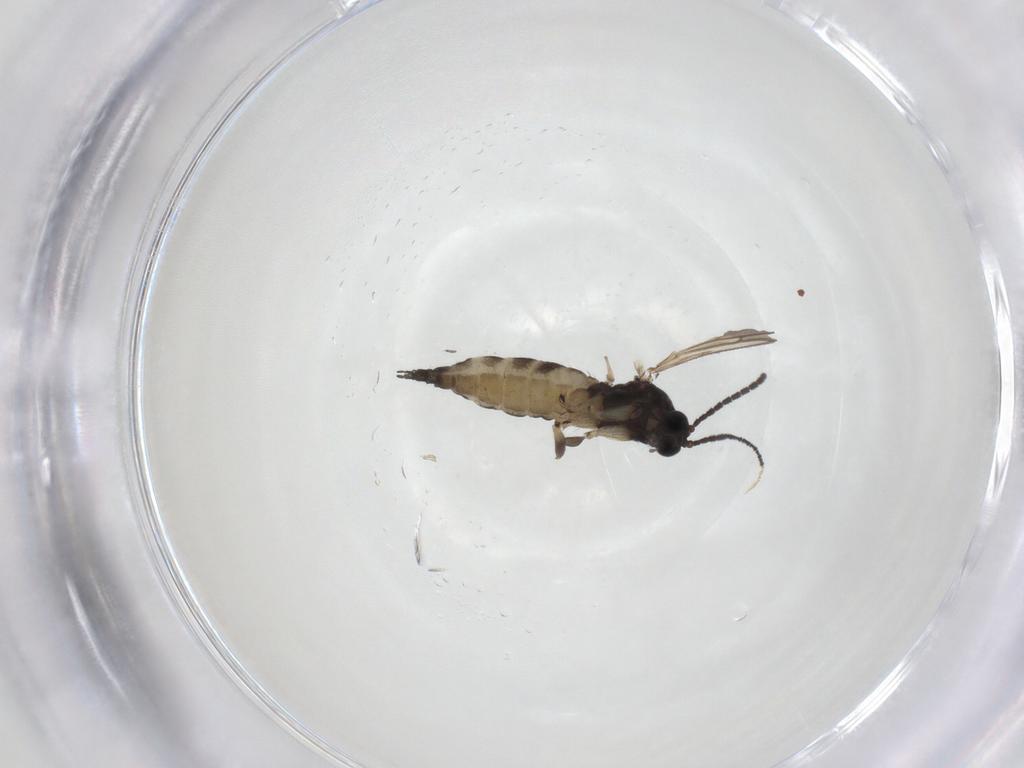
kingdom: Animalia
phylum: Arthropoda
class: Insecta
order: Diptera
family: Sciaridae
